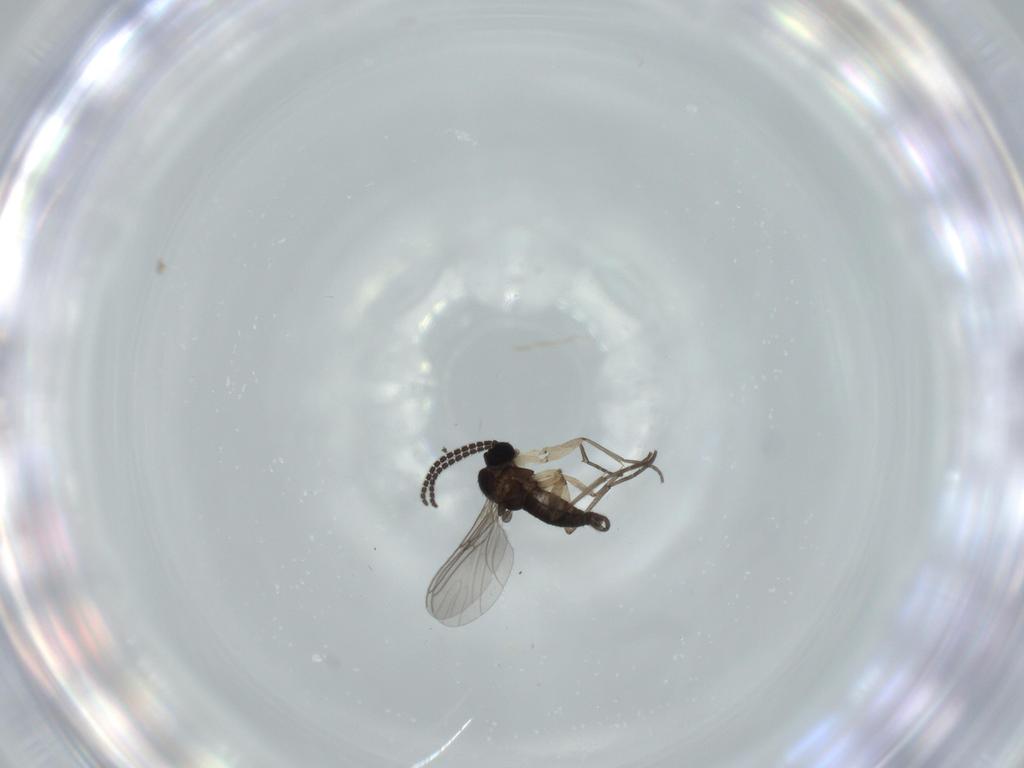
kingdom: Animalia
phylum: Arthropoda
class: Insecta
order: Diptera
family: Sciaridae
